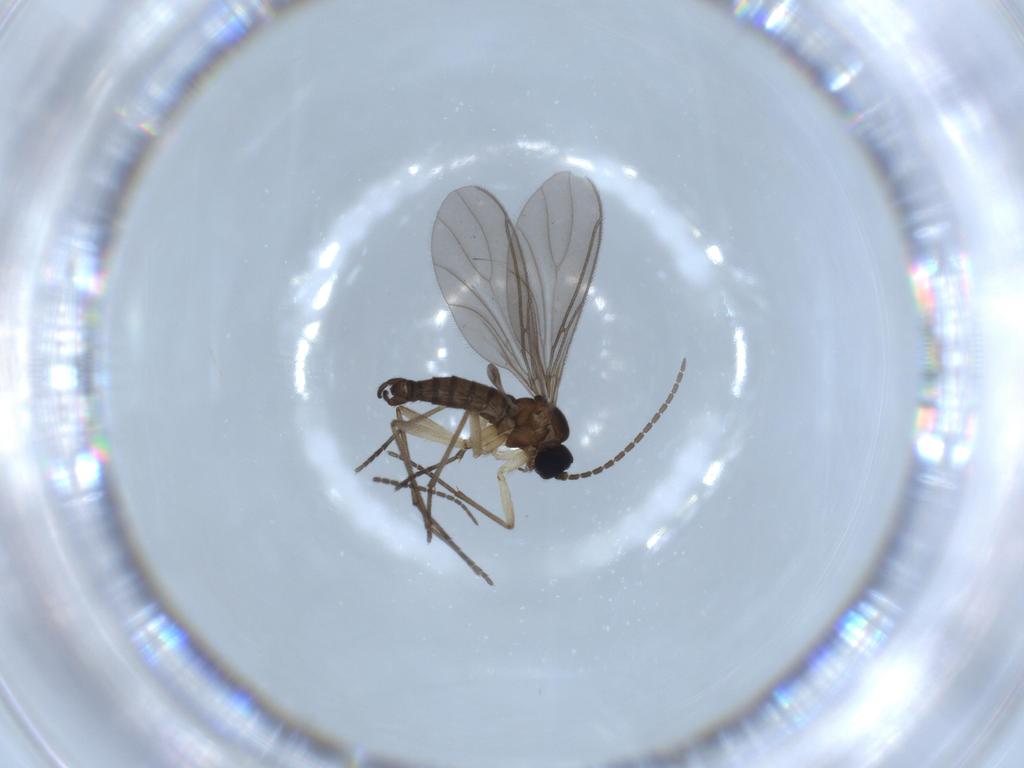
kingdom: Animalia
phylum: Arthropoda
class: Insecta
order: Diptera
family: Sciaridae
